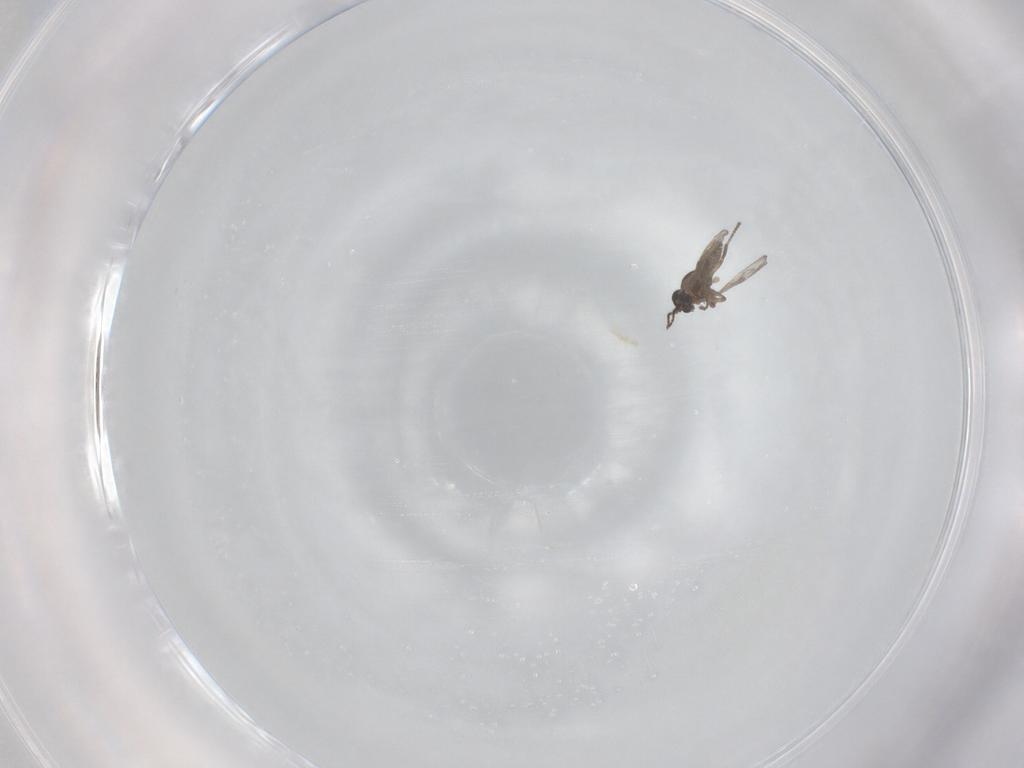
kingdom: Animalia
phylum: Arthropoda
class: Insecta
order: Diptera
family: Ceratopogonidae
